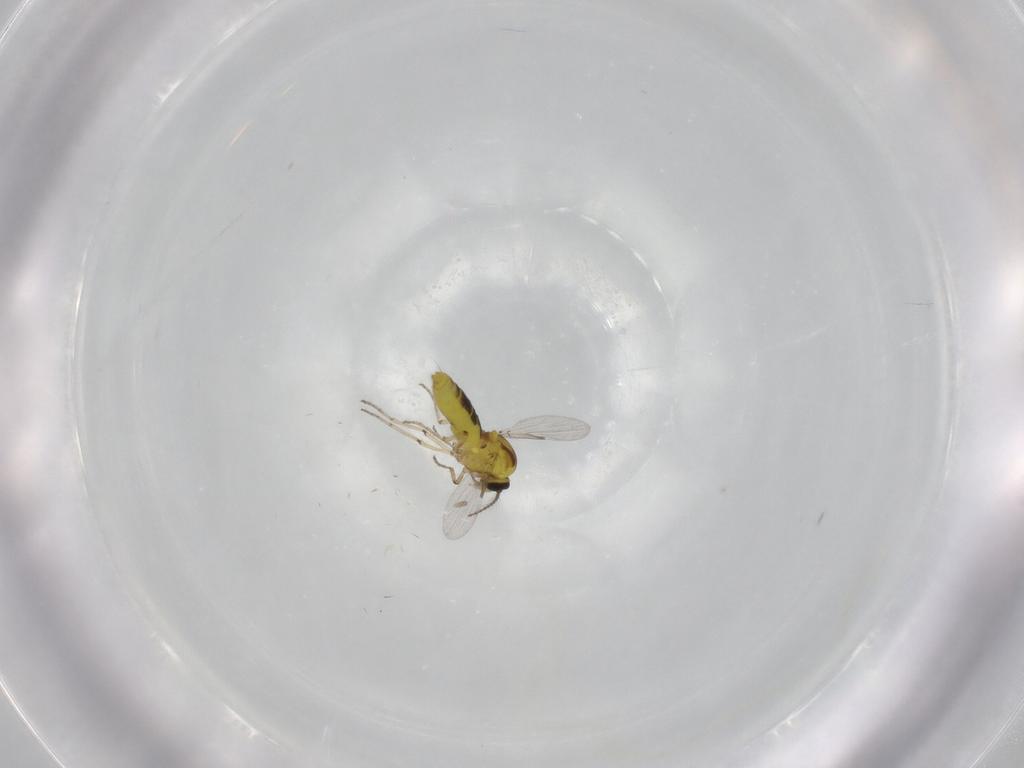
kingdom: Animalia
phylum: Arthropoda
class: Insecta
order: Diptera
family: Ceratopogonidae
